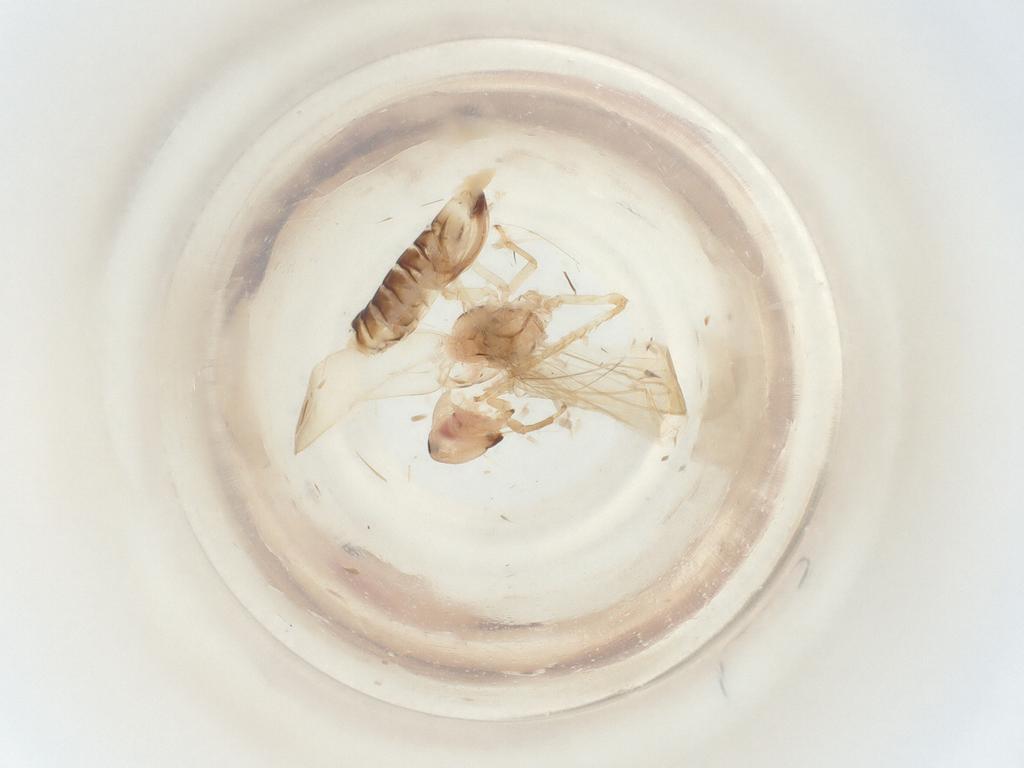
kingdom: Animalia
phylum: Arthropoda
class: Insecta
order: Hemiptera
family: Cicadellidae
